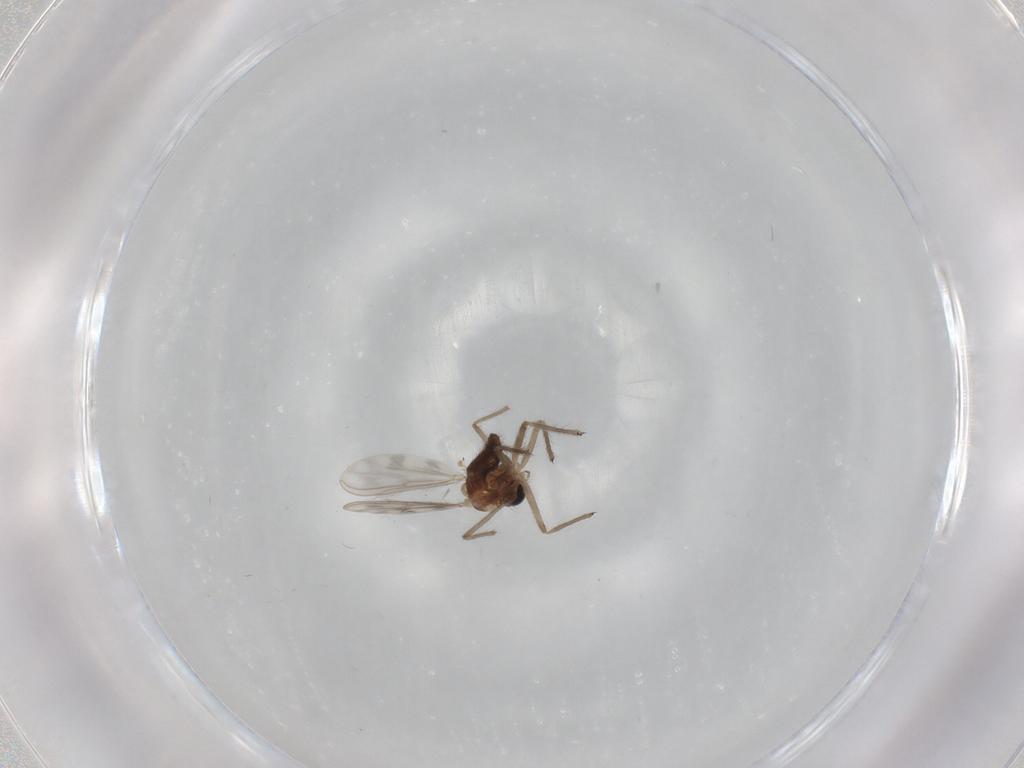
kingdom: Animalia
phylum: Arthropoda
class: Insecta
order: Diptera
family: Chironomidae
